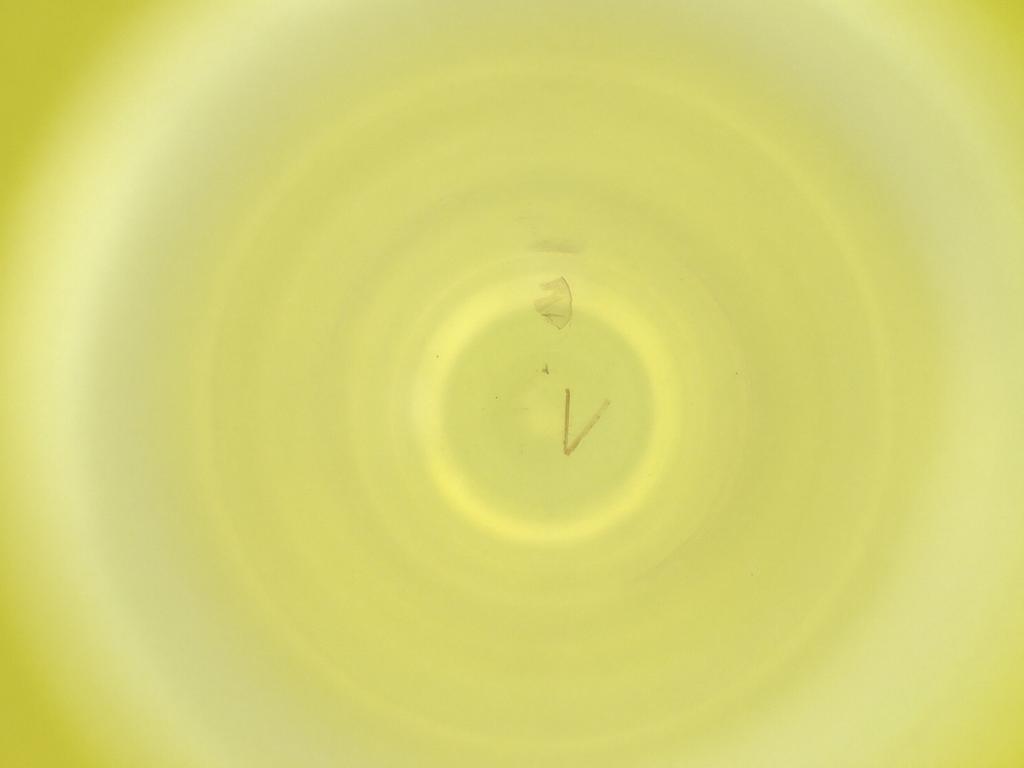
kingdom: Animalia
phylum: Arthropoda
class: Insecta
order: Diptera
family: Cecidomyiidae
